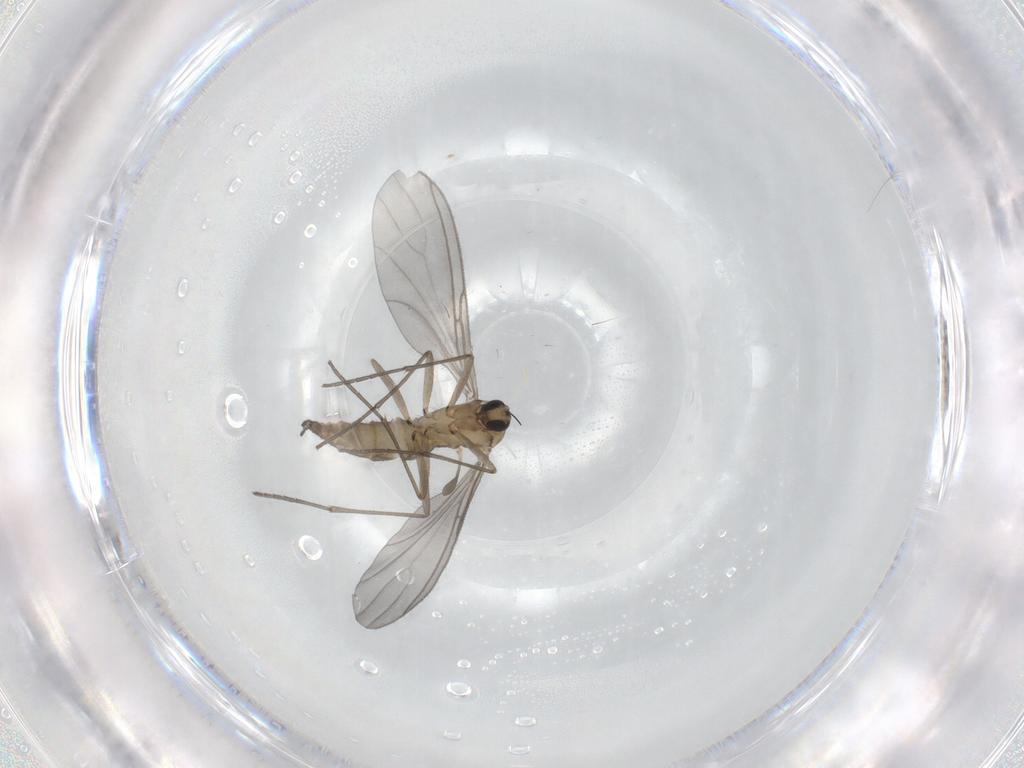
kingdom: Animalia
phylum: Arthropoda
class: Insecta
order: Diptera
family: Sciaridae
